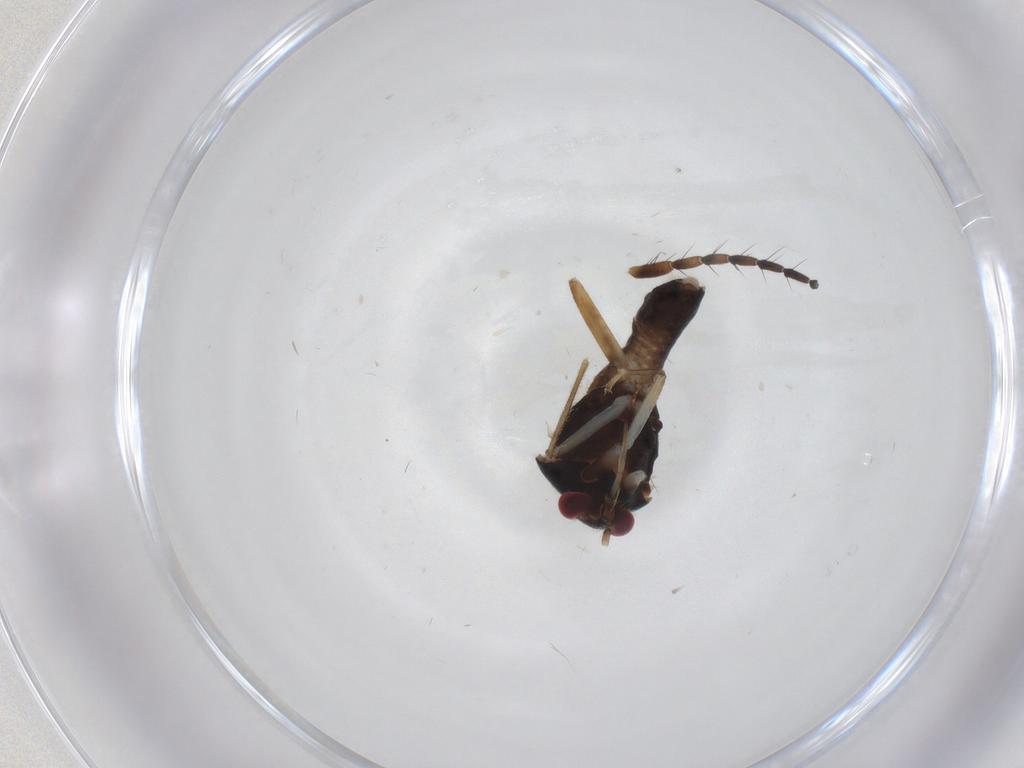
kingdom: Animalia
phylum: Arthropoda
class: Insecta
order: Hemiptera
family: Miridae
